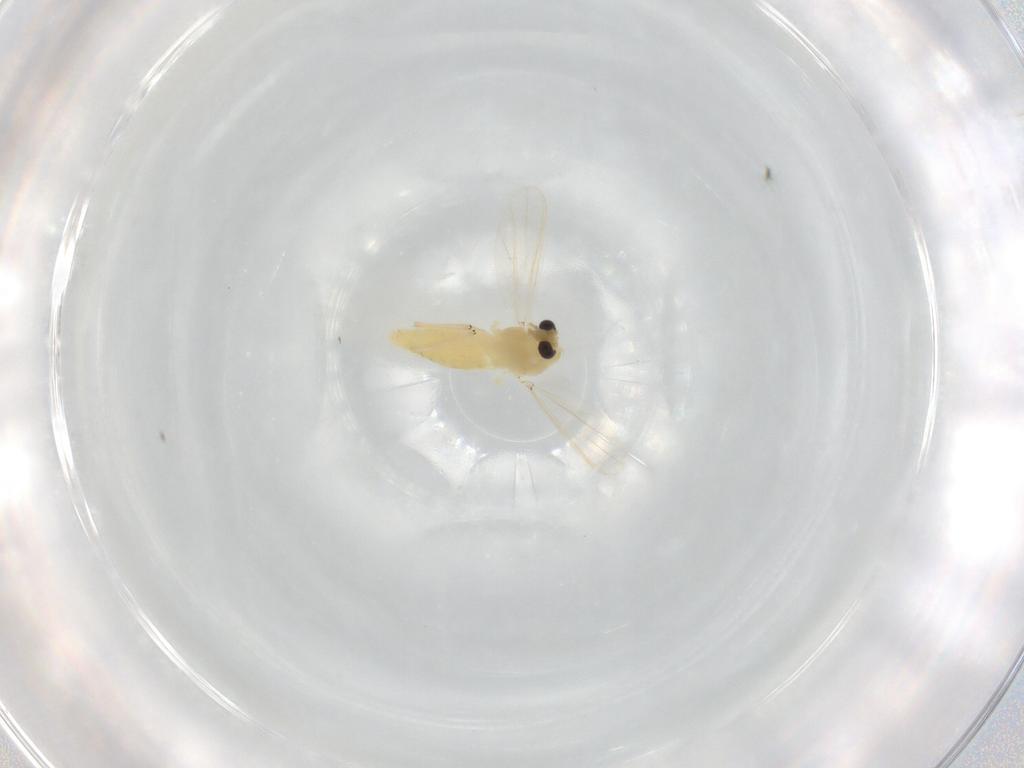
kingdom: Animalia
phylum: Arthropoda
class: Insecta
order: Diptera
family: Chironomidae
